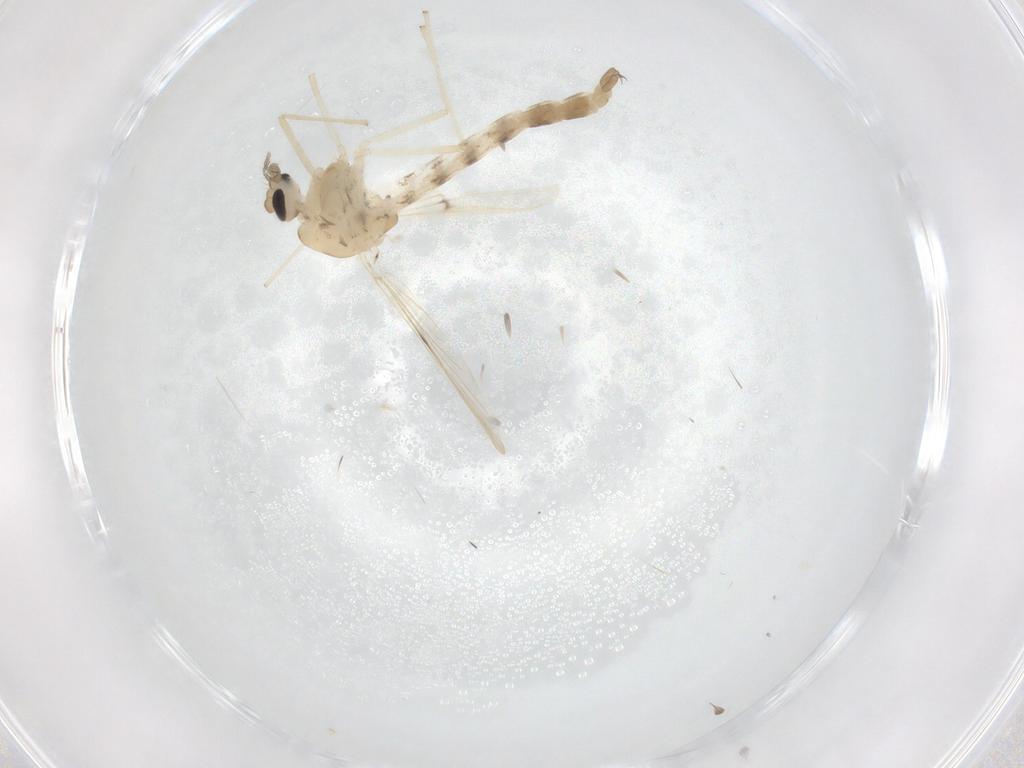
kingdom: Animalia
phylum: Arthropoda
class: Insecta
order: Diptera
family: Chironomidae
